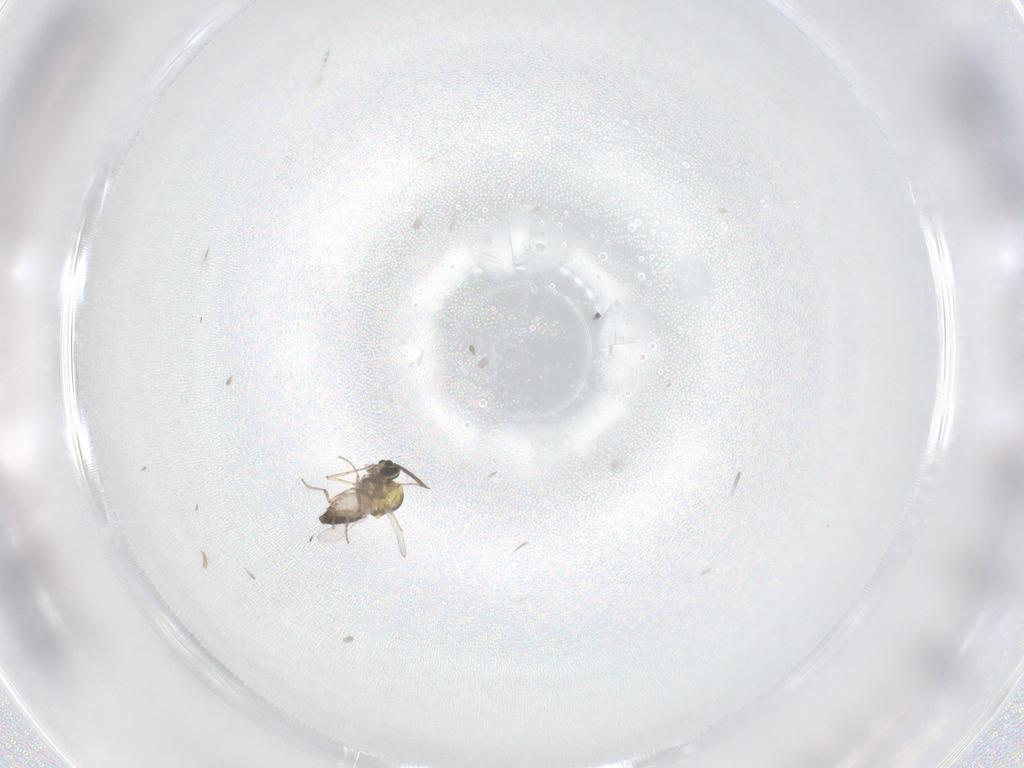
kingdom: Animalia
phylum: Arthropoda
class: Insecta
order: Diptera
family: Ceratopogonidae
